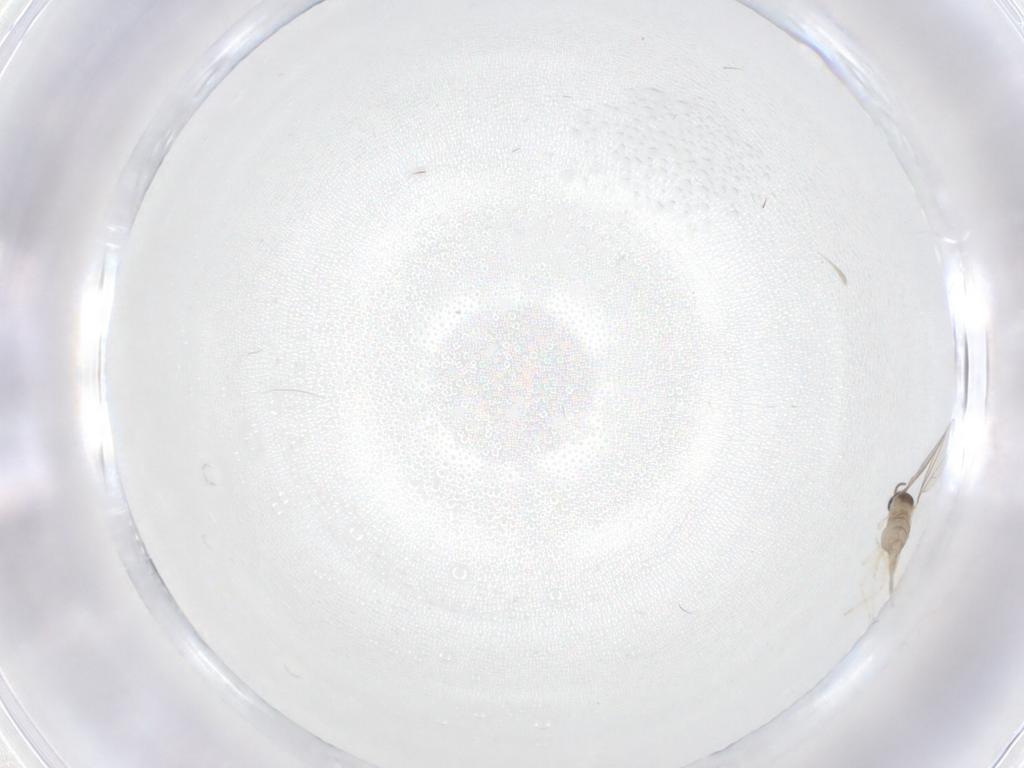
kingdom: Animalia
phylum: Arthropoda
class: Insecta
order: Diptera
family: Cecidomyiidae
